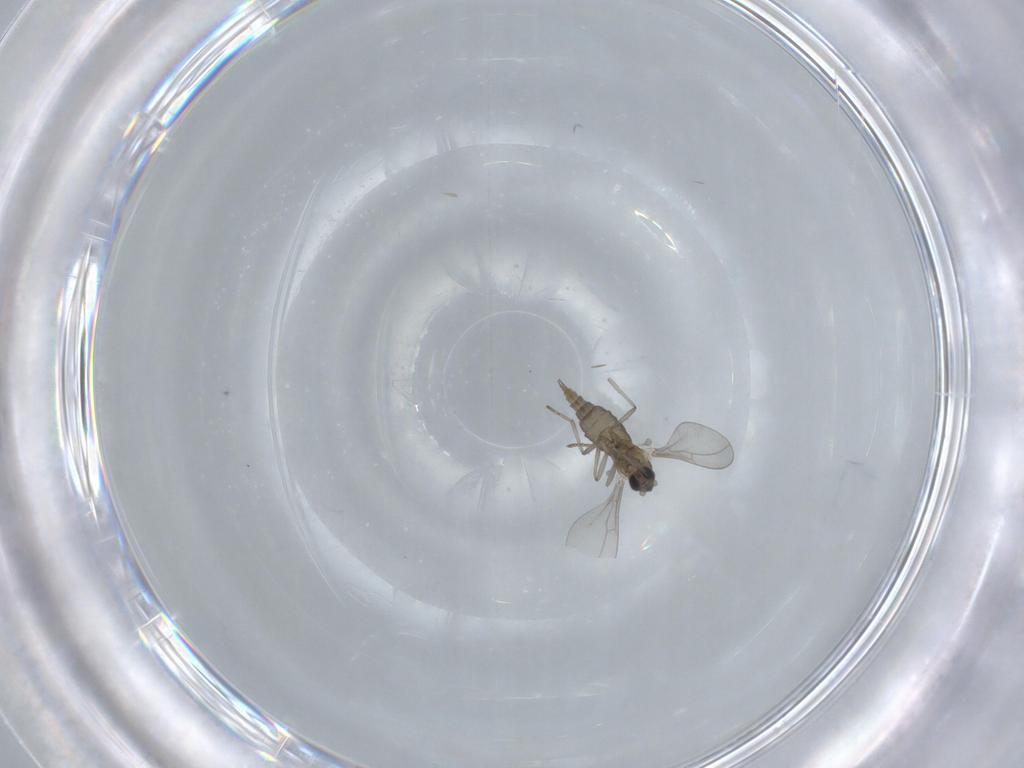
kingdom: Animalia
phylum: Arthropoda
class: Insecta
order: Diptera
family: Cecidomyiidae
